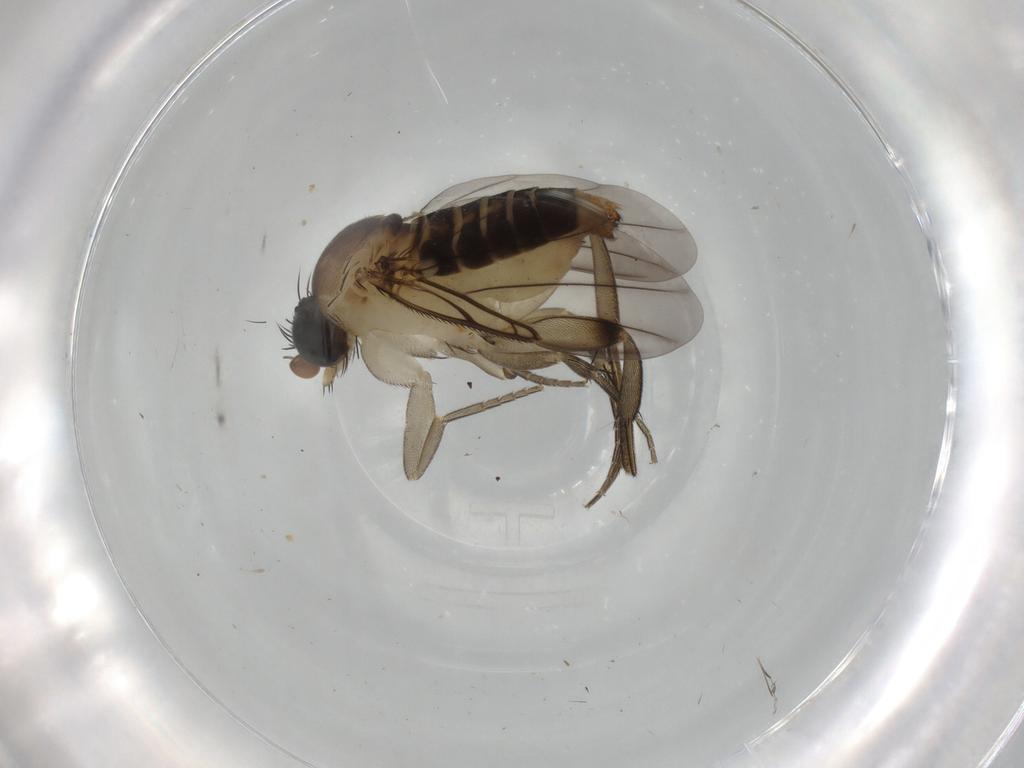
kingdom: Animalia
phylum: Arthropoda
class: Insecta
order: Diptera
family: Phoridae
